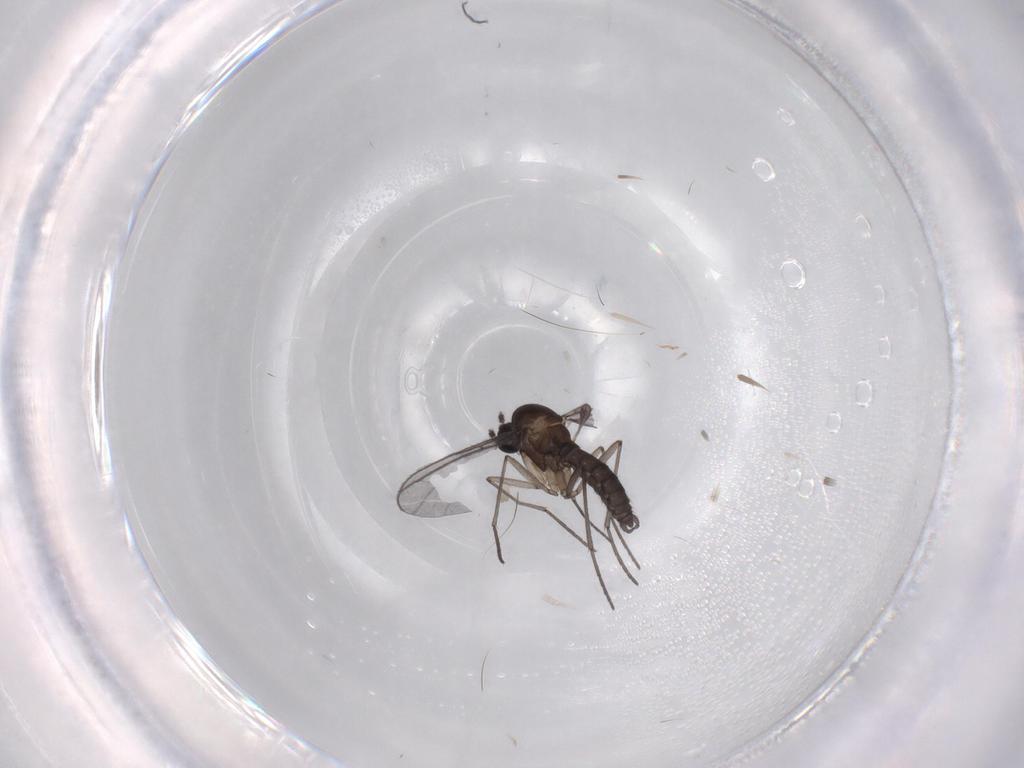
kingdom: Animalia
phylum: Arthropoda
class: Insecta
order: Diptera
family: Sciaridae
